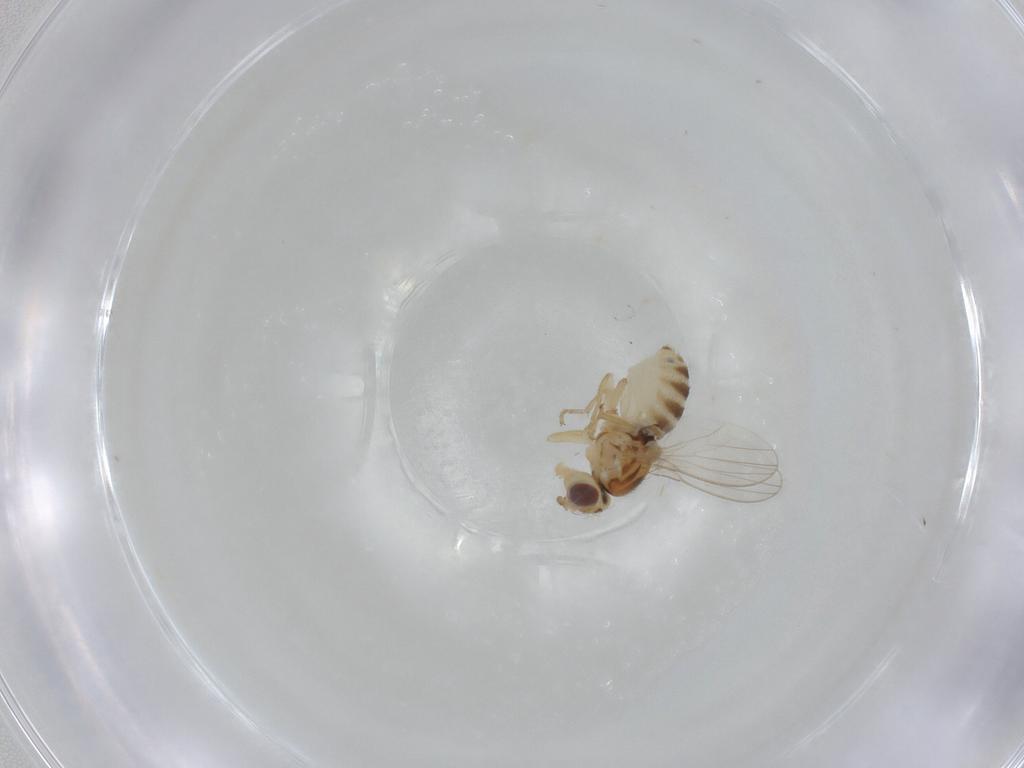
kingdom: Animalia
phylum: Arthropoda
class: Insecta
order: Diptera
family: Chyromyidae
